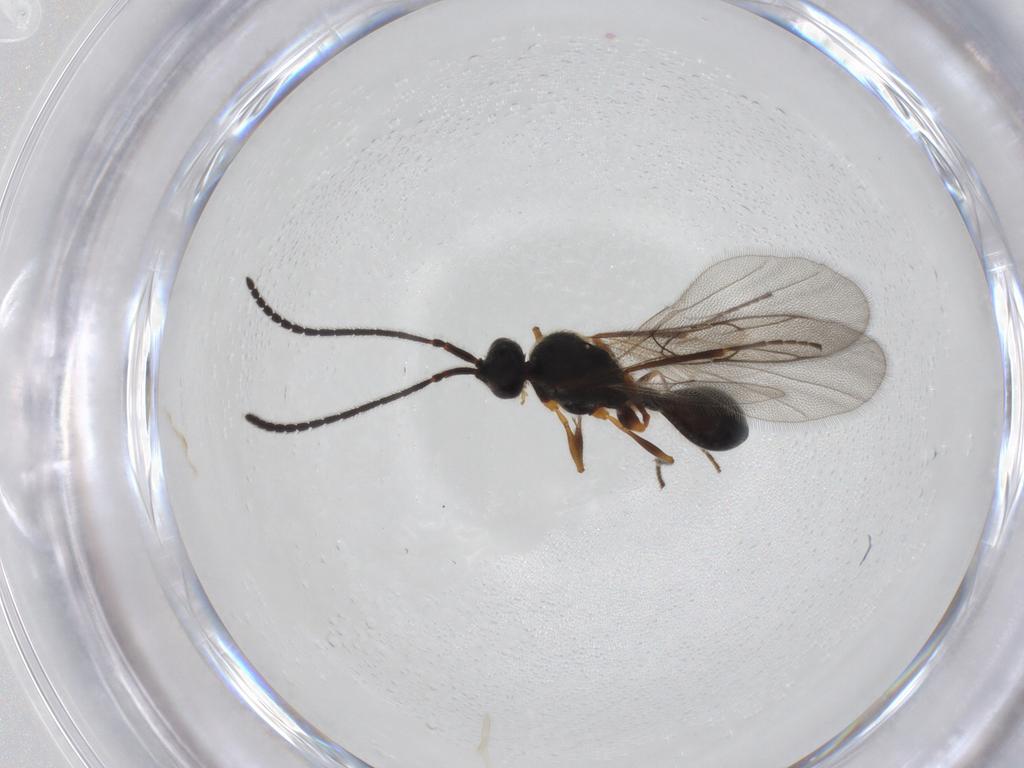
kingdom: Animalia
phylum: Arthropoda
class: Insecta
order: Hymenoptera
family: Diapriidae
